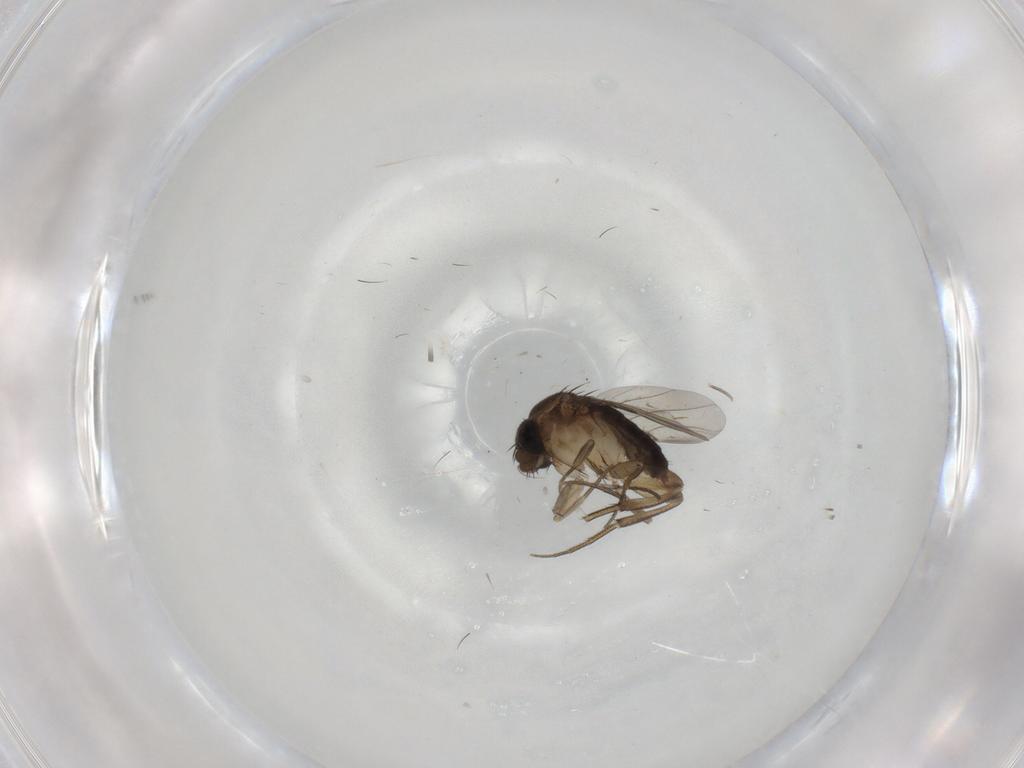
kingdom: Animalia
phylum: Arthropoda
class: Insecta
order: Diptera
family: Phoridae
